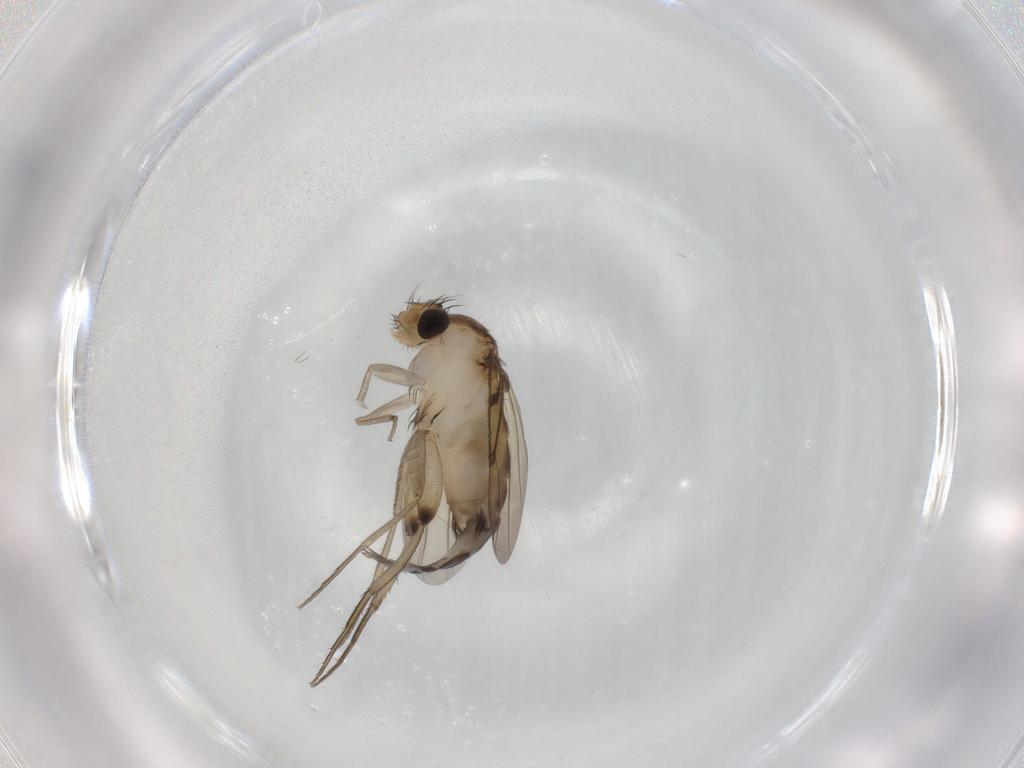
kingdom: Animalia
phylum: Arthropoda
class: Insecta
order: Diptera
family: Phoridae
